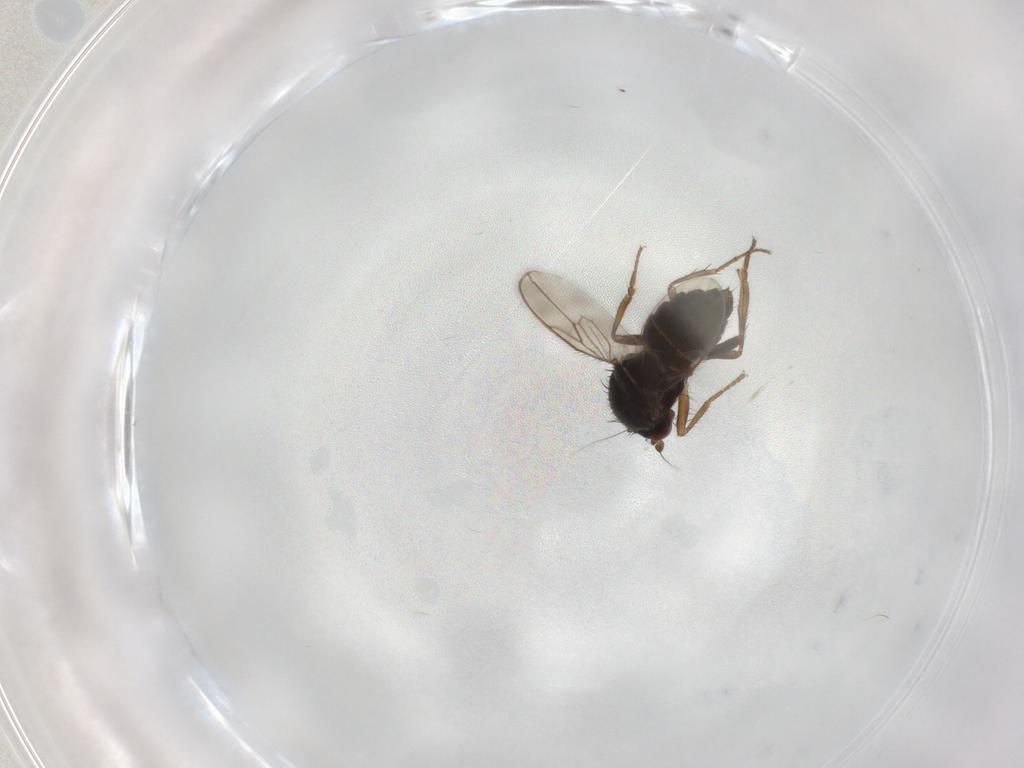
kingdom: Animalia
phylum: Arthropoda
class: Insecta
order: Diptera
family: Sphaeroceridae
